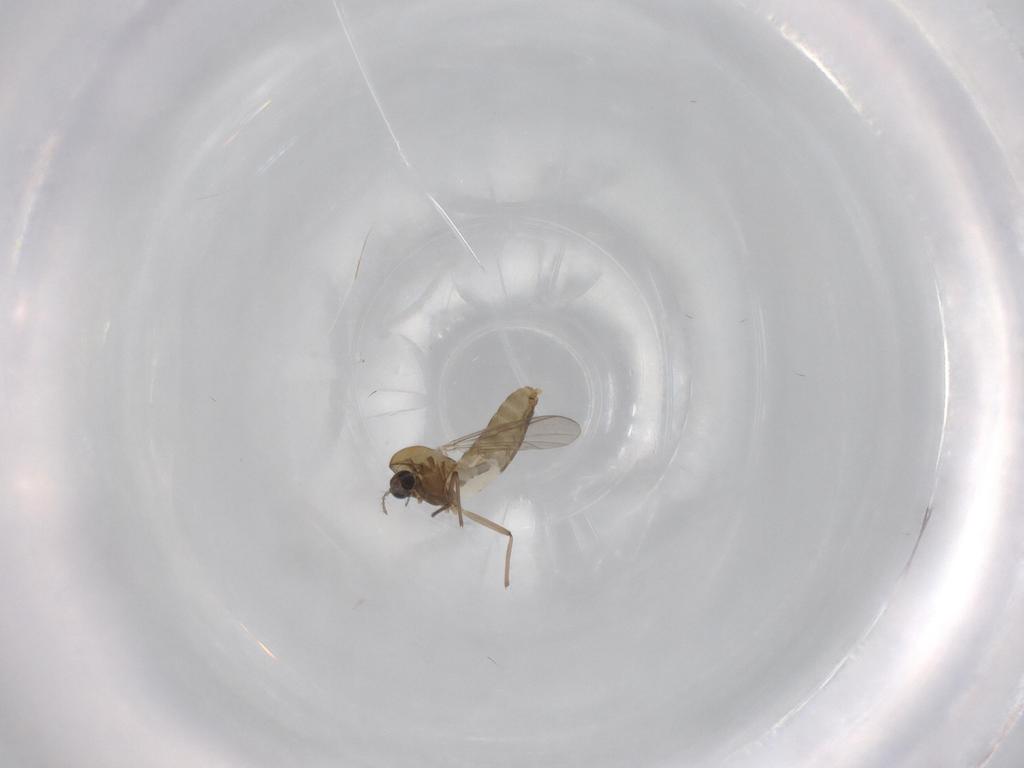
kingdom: Animalia
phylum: Arthropoda
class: Insecta
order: Diptera
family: Chironomidae
